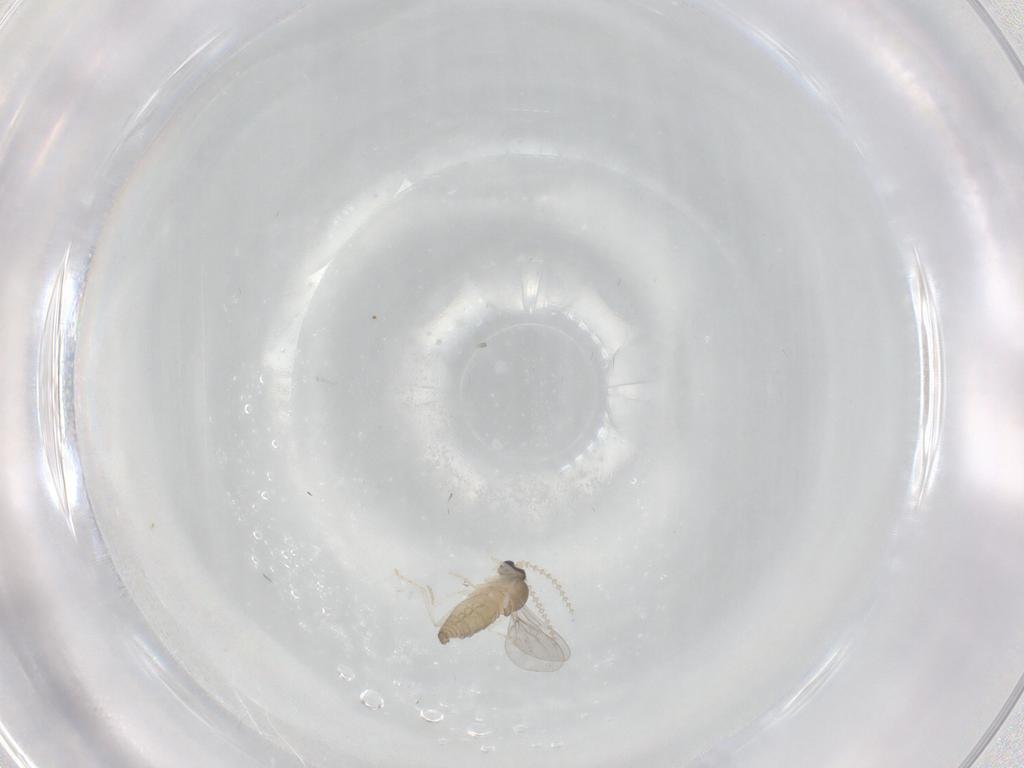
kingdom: Animalia
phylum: Arthropoda
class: Insecta
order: Diptera
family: Cecidomyiidae
